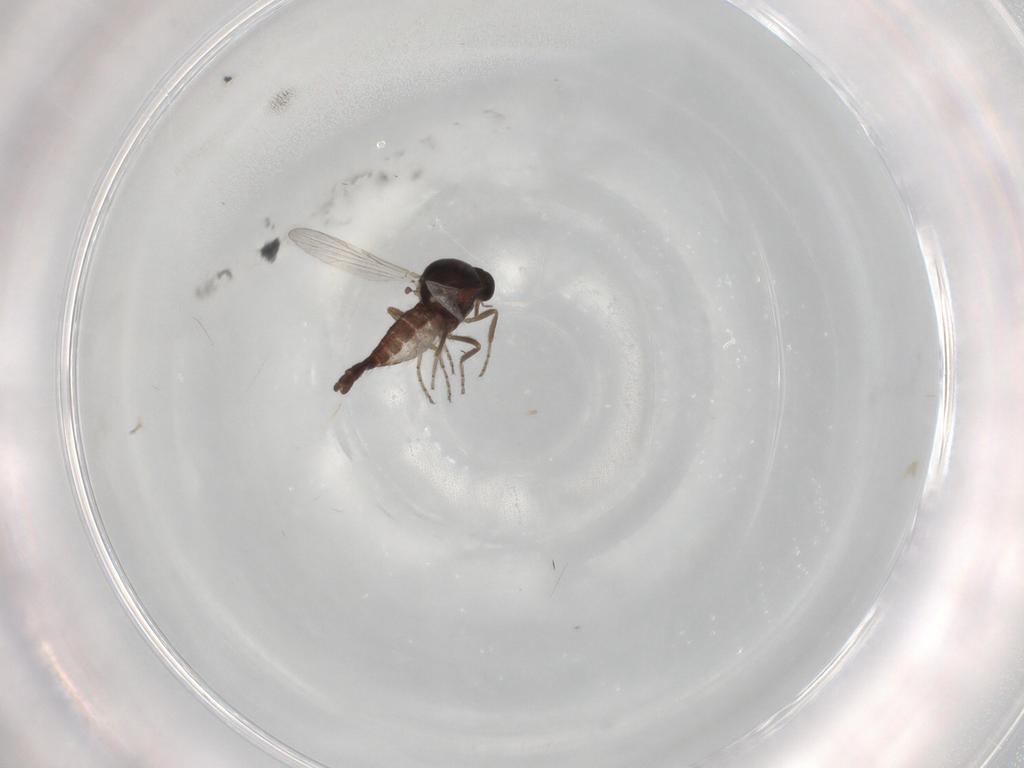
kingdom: Animalia
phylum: Arthropoda
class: Insecta
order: Diptera
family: Ceratopogonidae
